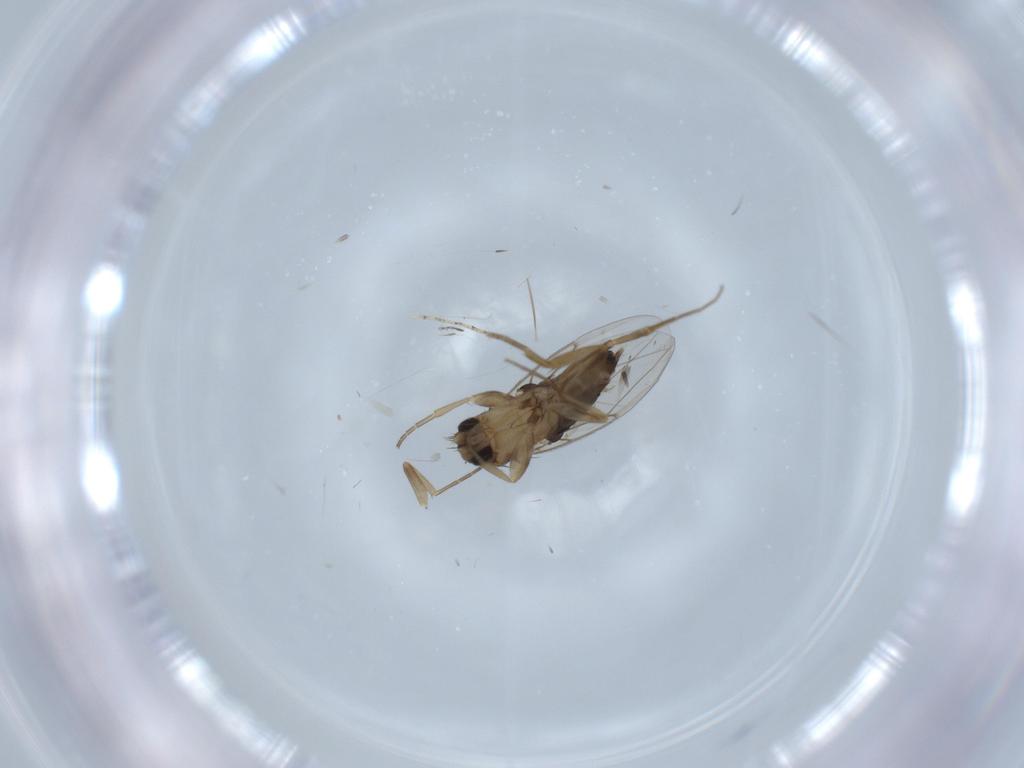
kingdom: Animalia
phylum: Arthropoda
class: Insecta
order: Diptera
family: Phoridae
